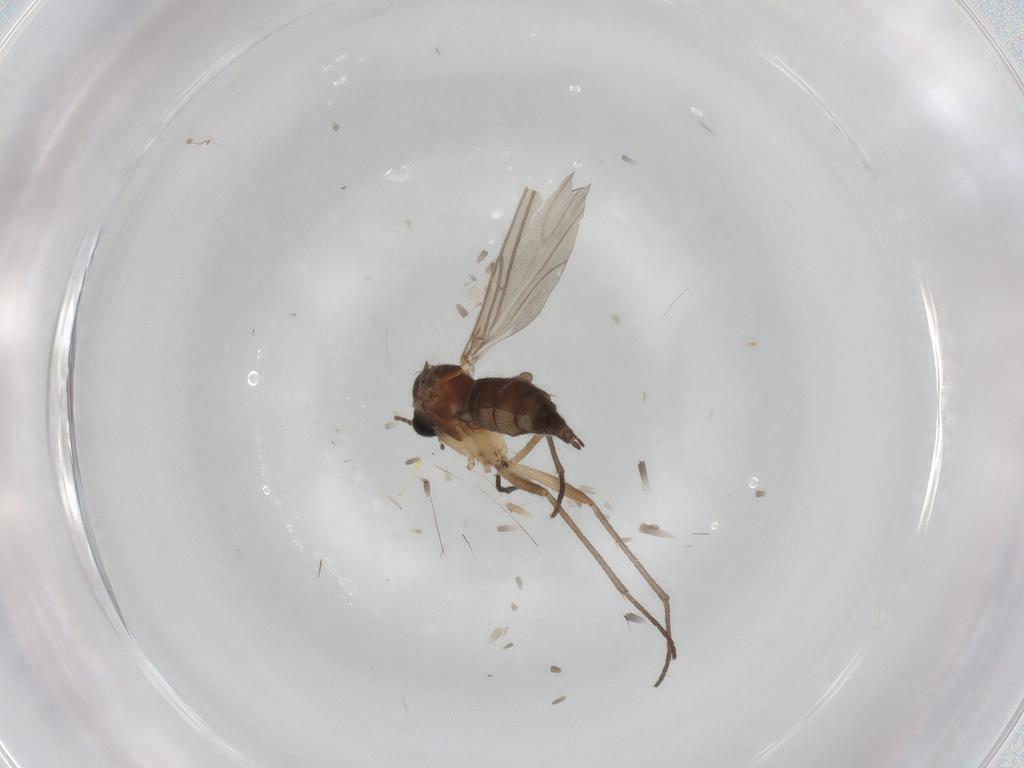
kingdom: Animalia
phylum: Arthropoda
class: Insecta
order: Diptera
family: Sciaridae
